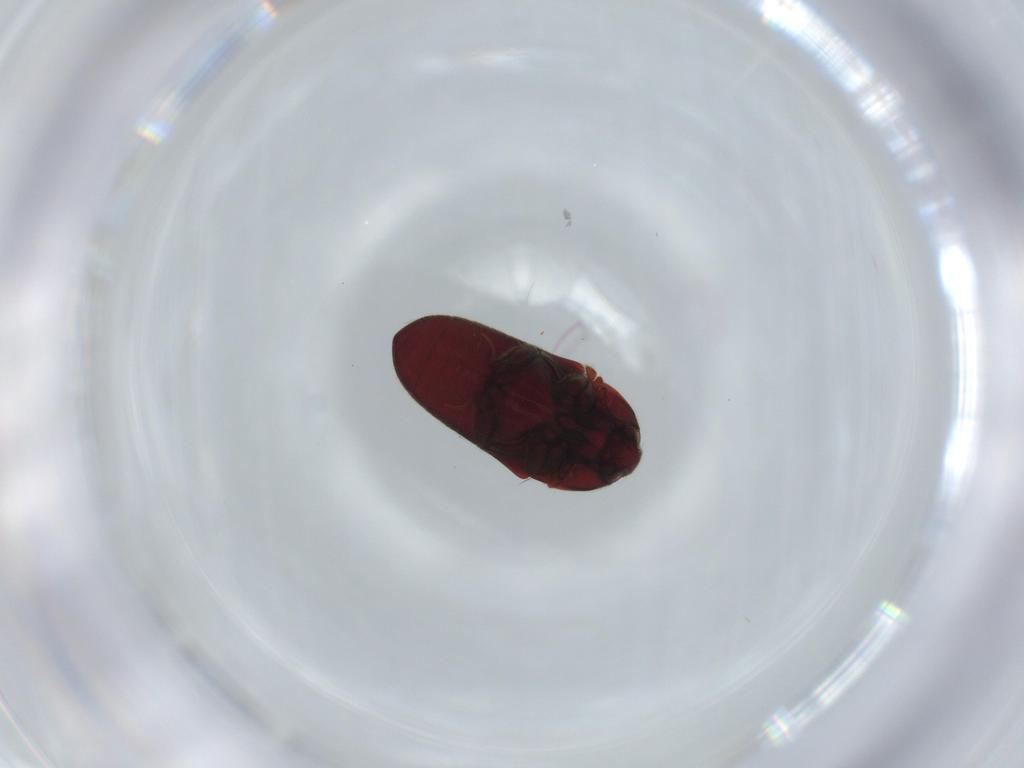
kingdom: Animalia
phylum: Arthropoda
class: Insecta
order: Coleoptera
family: Throscidae
